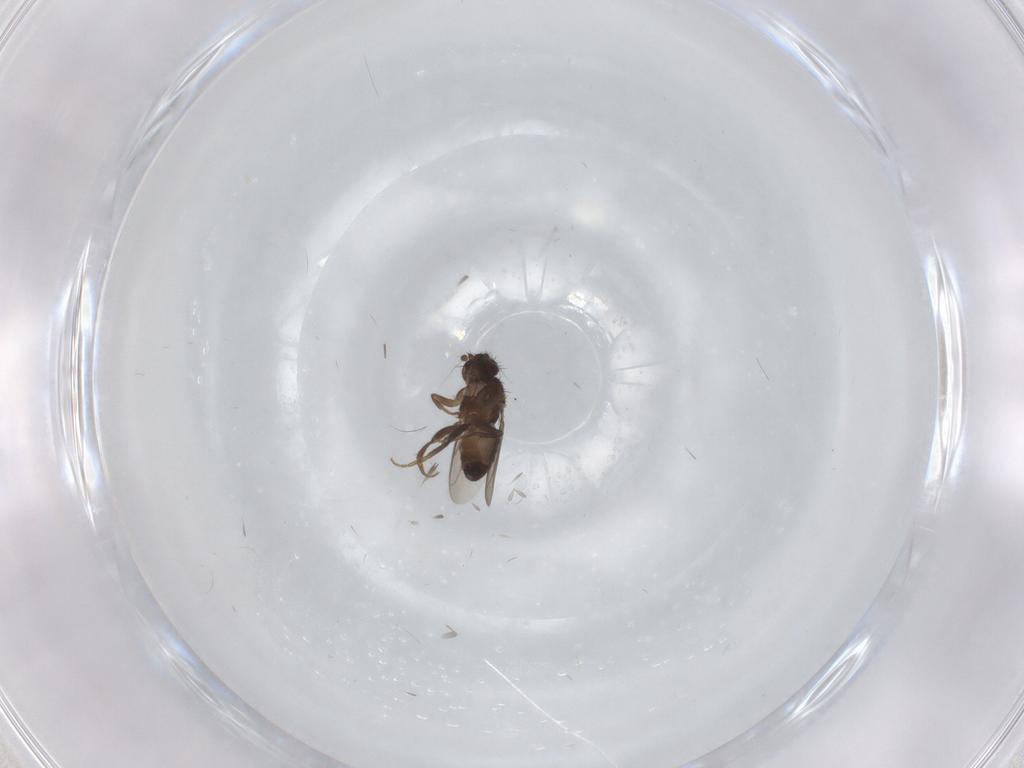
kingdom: Animalia
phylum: Arthropoda
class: Insecta
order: Diptera
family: Sphaeroceridae
